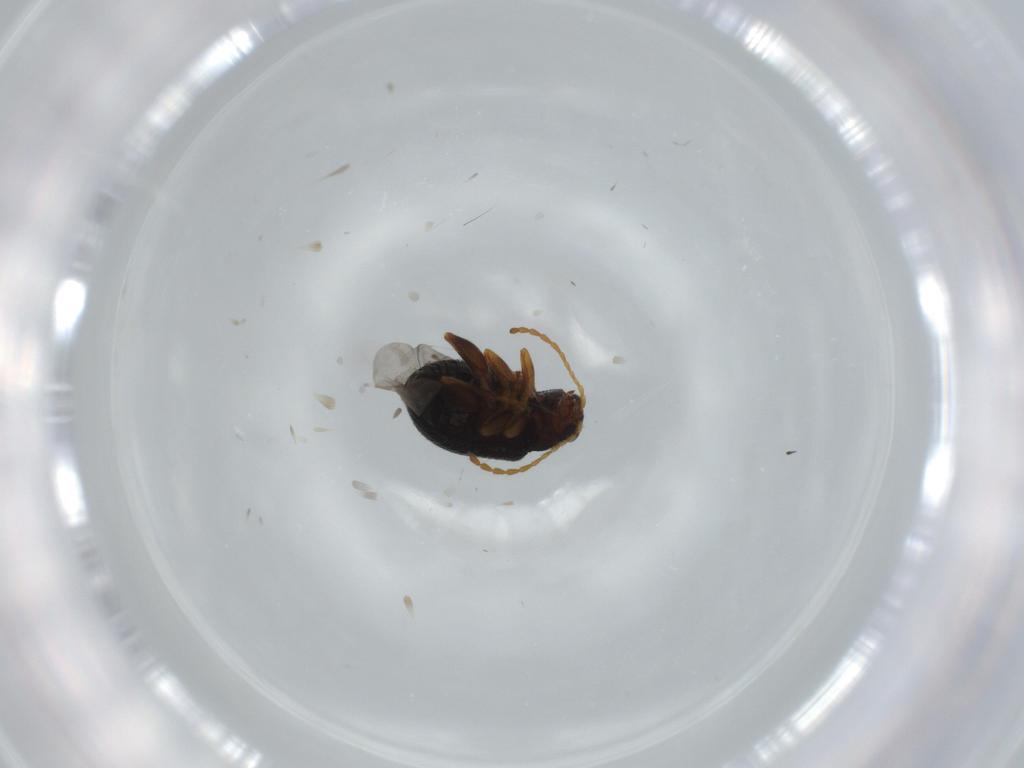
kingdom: Animalia
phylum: Arthropoda
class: Insecta
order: Coleoptera
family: Chrysomelidae
